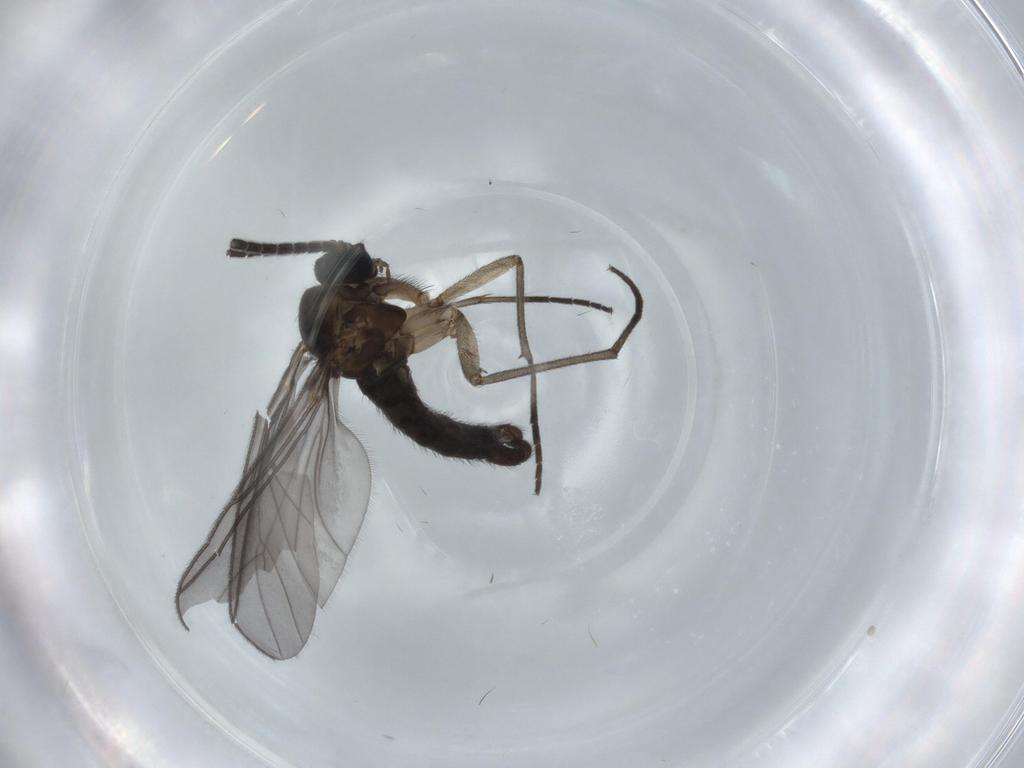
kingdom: Animalia
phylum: Arthropoda
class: Insecta
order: Diptera
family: Sciaridae
